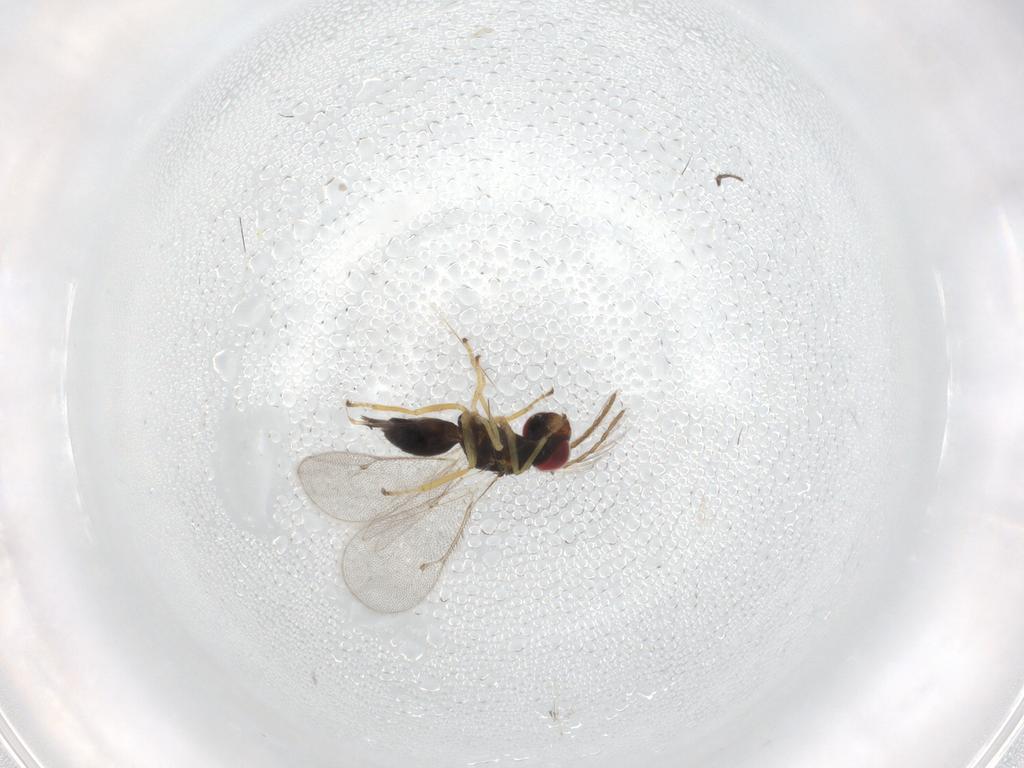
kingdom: Animalia
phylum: Arthropoda
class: Insecta
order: Hymenoptera
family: Eulophidae
